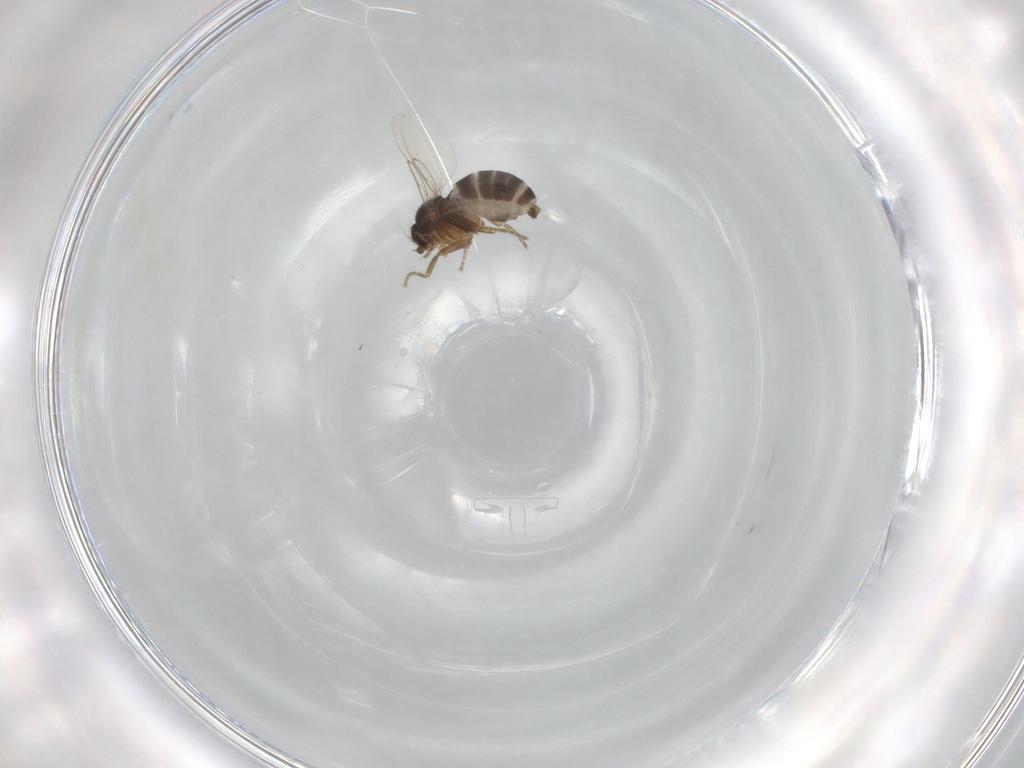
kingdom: Animalia
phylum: Arthropoda
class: Insecta
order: Diptera
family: Phoridae
